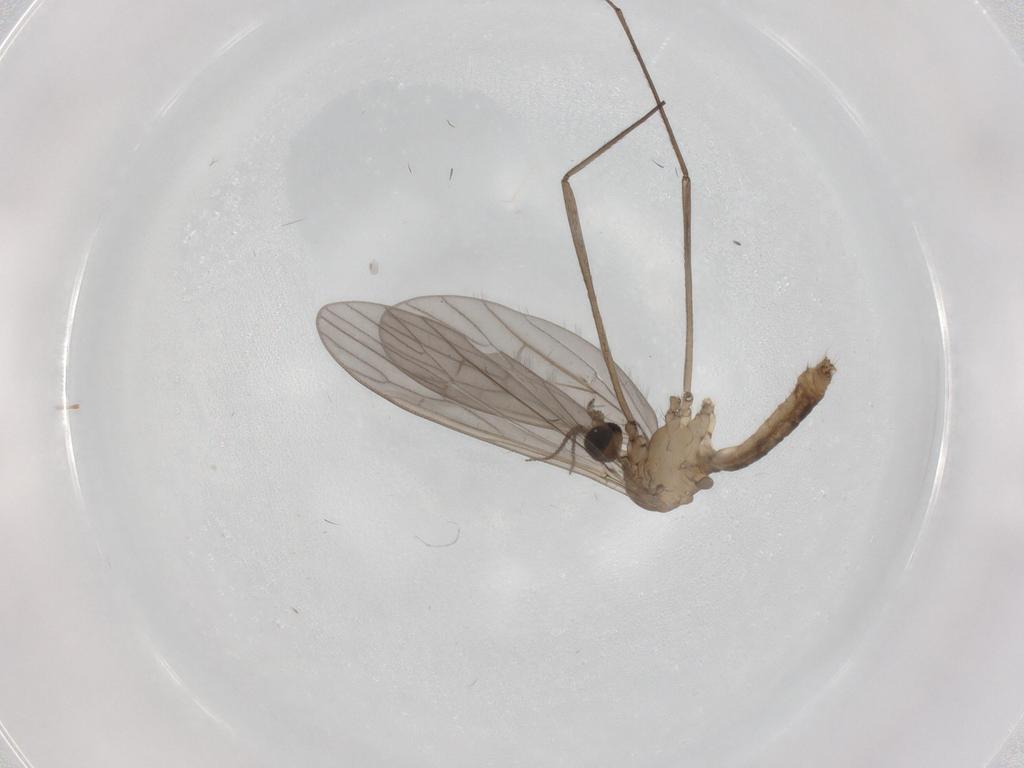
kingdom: Animalia
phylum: Arthropoda
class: Insecta
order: Diptera
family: Limoniidae
